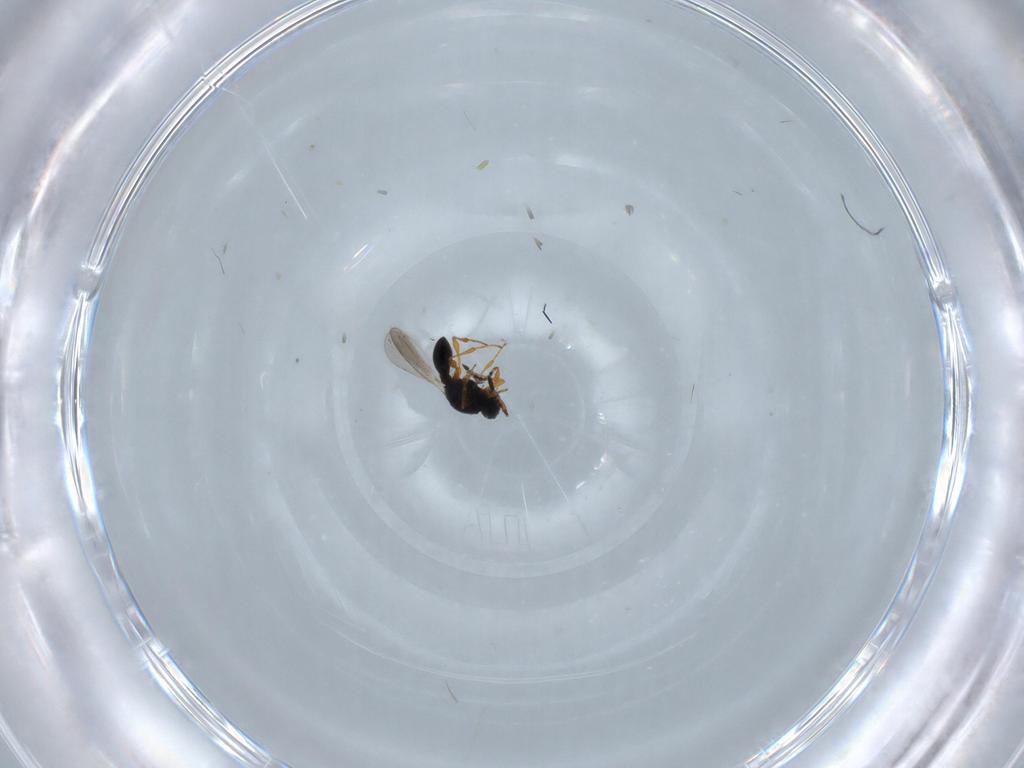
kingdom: Animalia
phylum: Arthropoda
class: Insecta
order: Hymenoptera
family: Platygastridae
